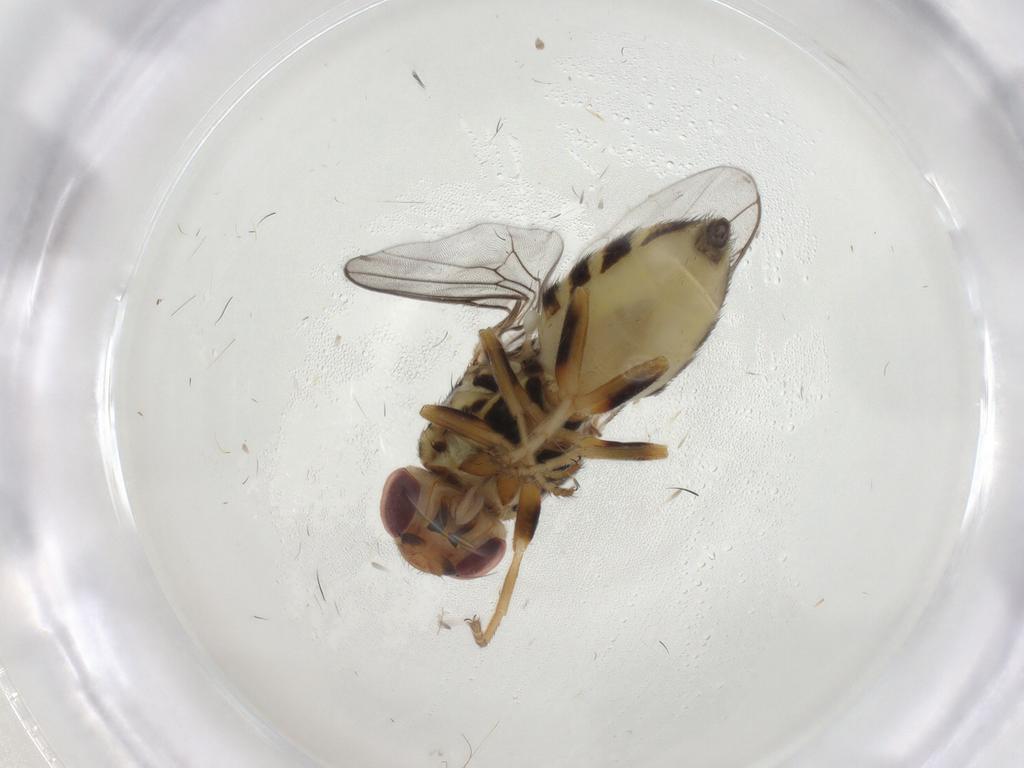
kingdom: Animalia
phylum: Arthropoda
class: Insecta
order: Diptera
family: Chloropidae
